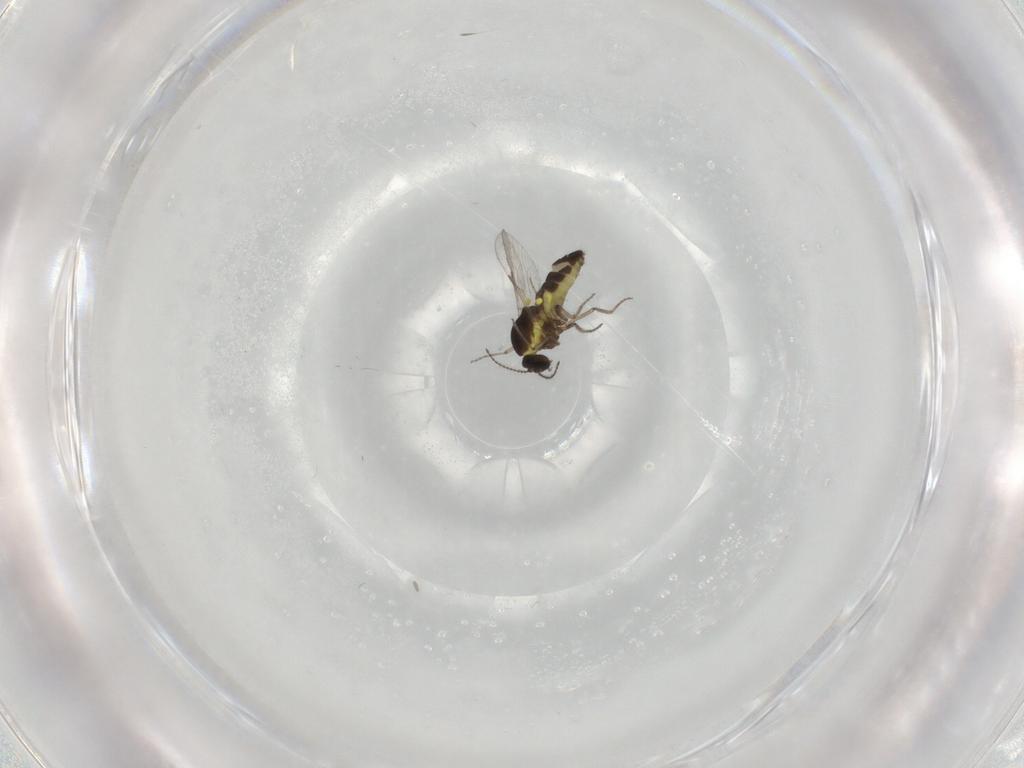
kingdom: Animalia
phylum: Arthropoda
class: Insecta
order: Diptera
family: Ceratopogonidae
